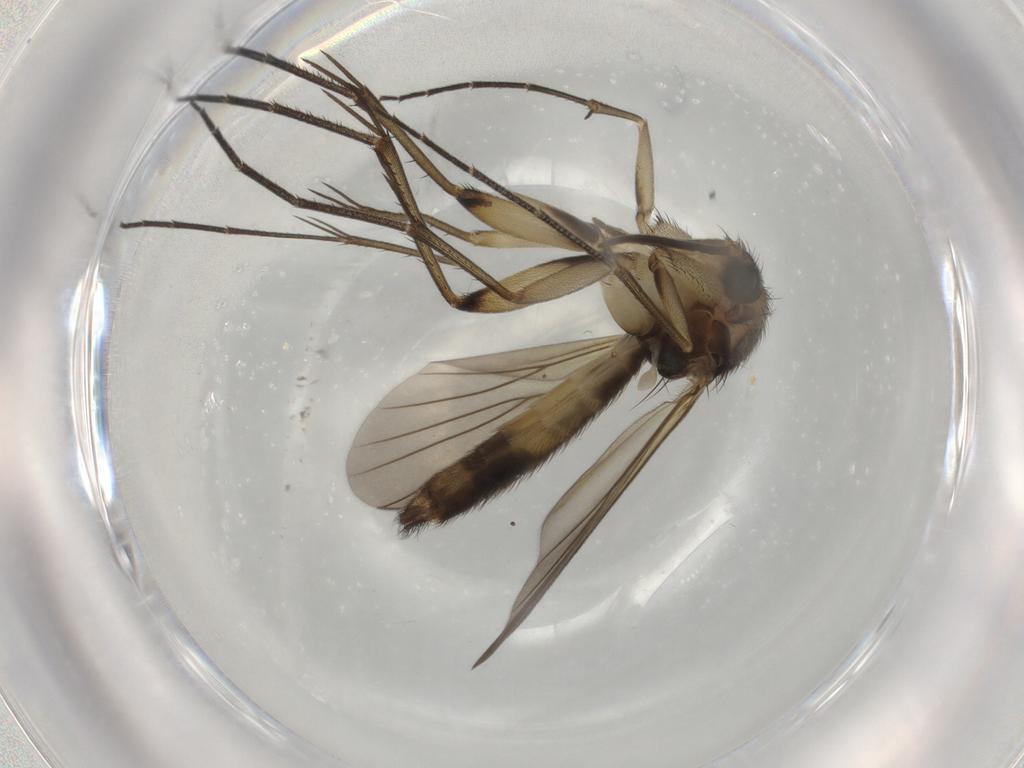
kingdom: Animalia
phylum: Arthropoda
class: Insecta
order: Diptera
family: Mycetophilidae
